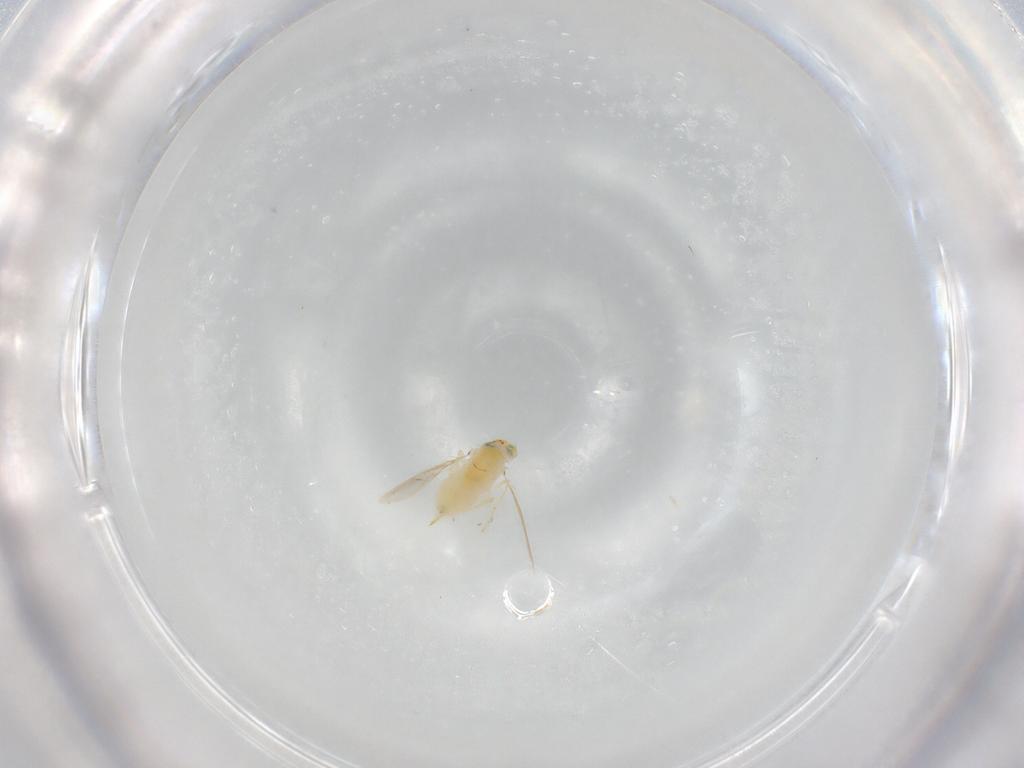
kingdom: Animalia
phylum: Arthropoda
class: Insecta
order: Hymenoptera
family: Aphelinidae
